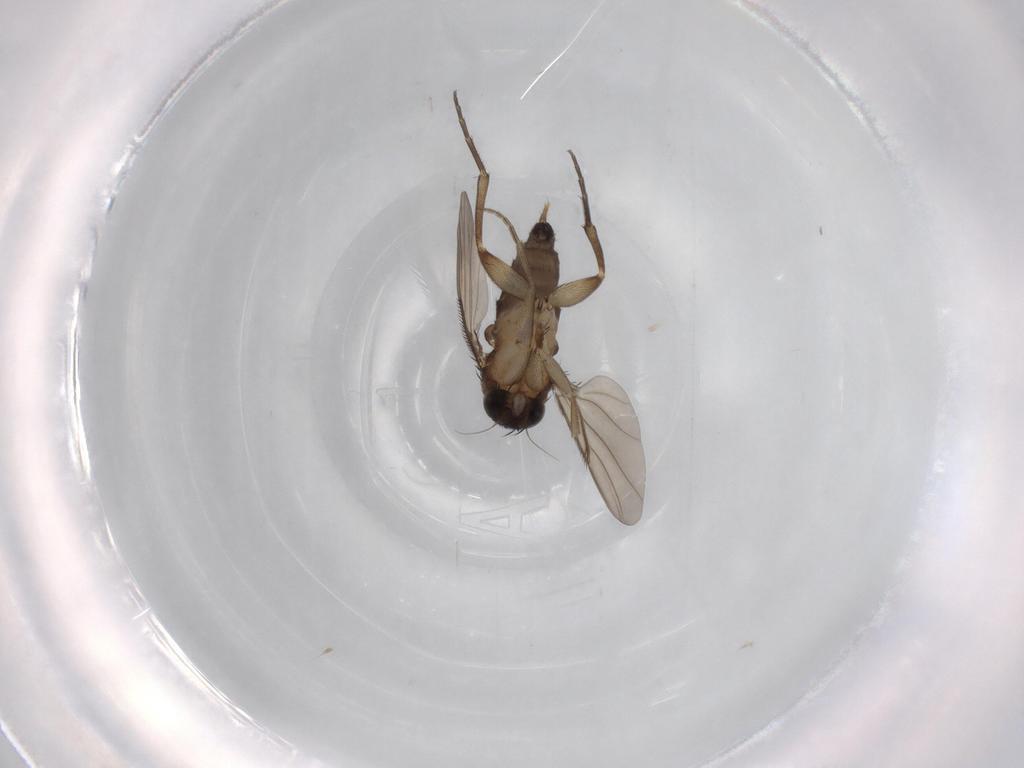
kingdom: Animalia
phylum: Arthropoda
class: Insecta
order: Diptera
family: Phoridae
